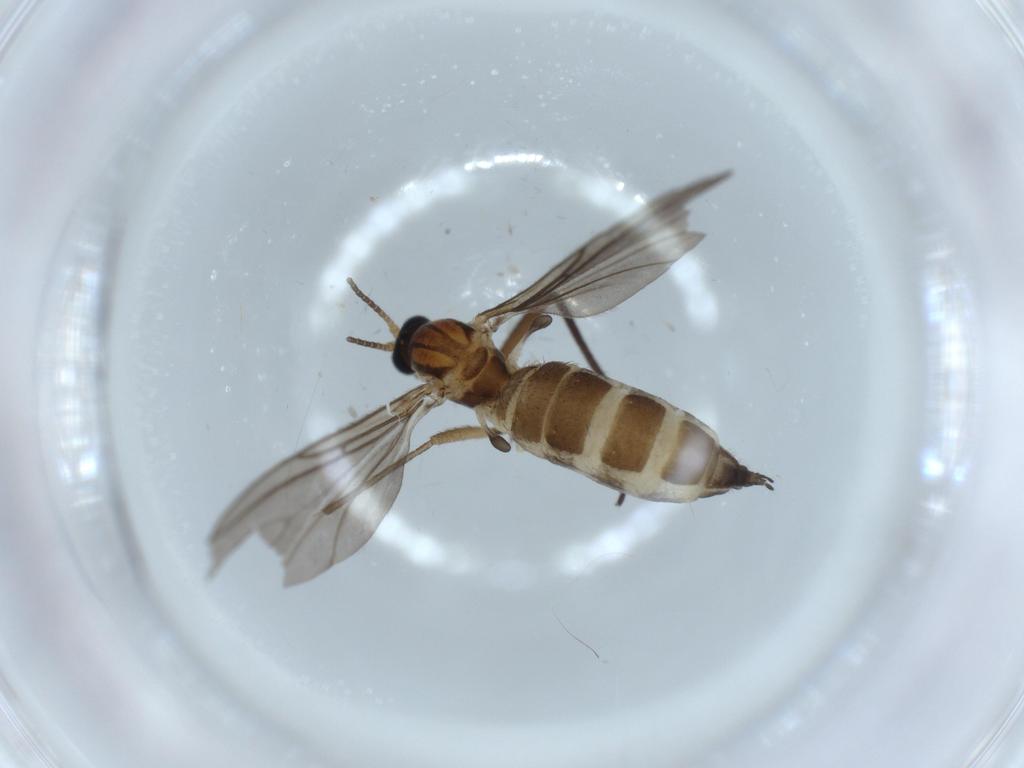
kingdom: Animalia
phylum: Arthropoda
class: Insecta
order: Diptera
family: Sciaridae
